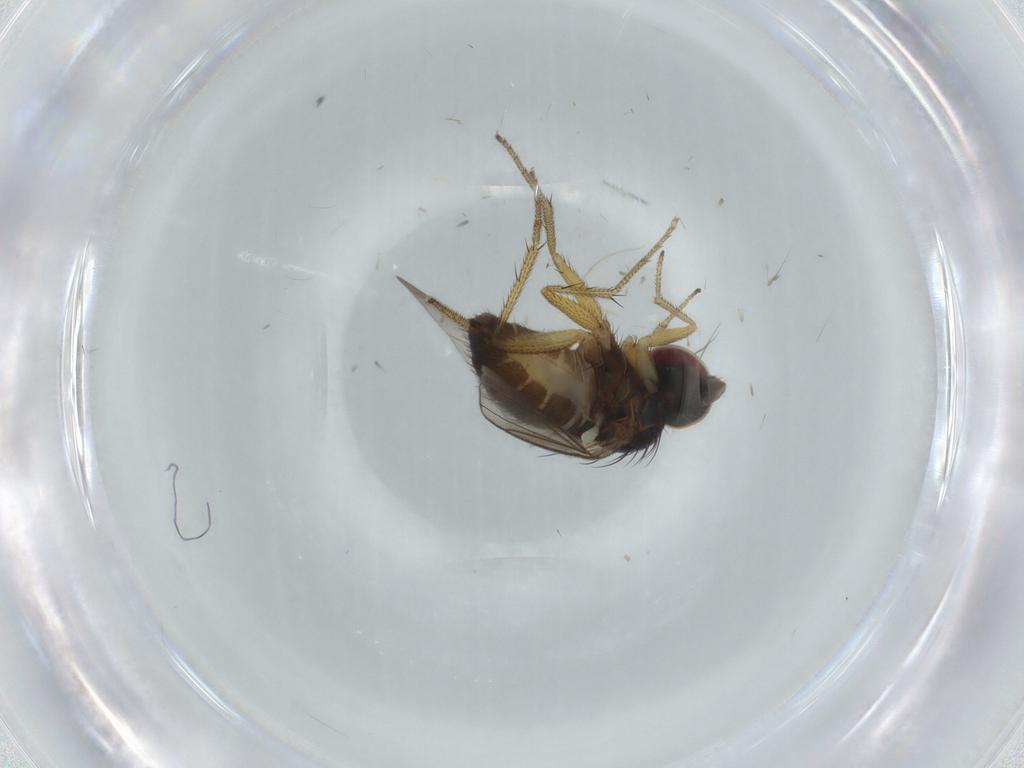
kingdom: Animalia
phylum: Arthropoda
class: Insecta
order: Diptera
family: Dolichopodidae
